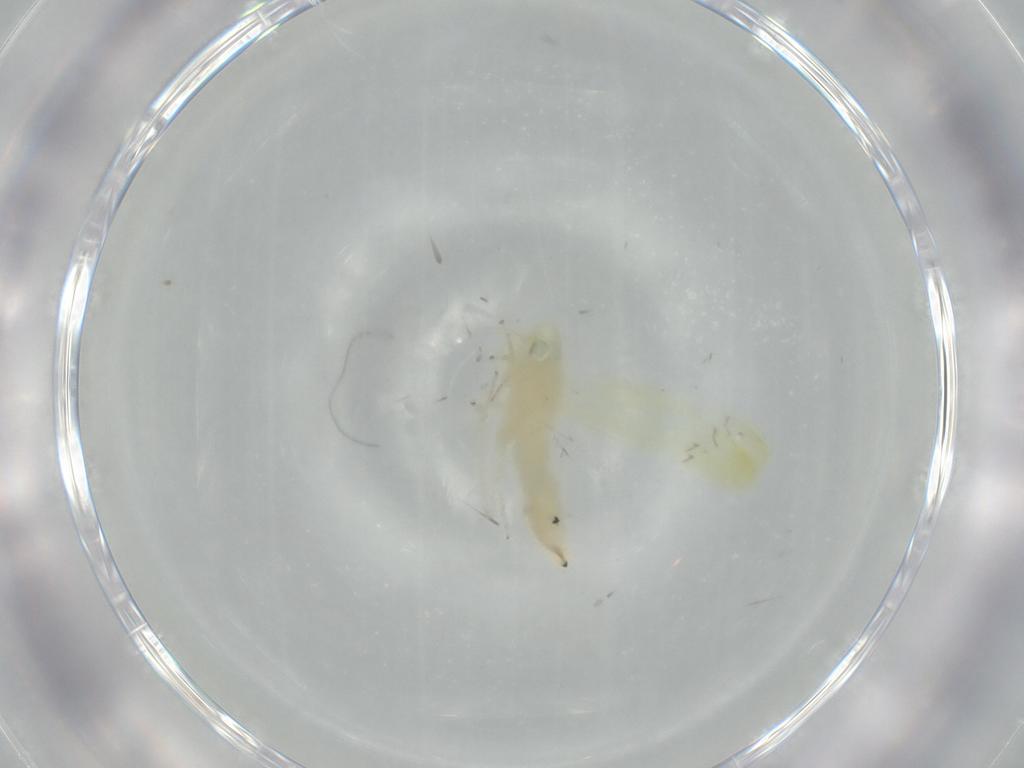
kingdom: Animalia
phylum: Arthropoda
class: Insecta
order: Hemiptera
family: Cicadellidae
